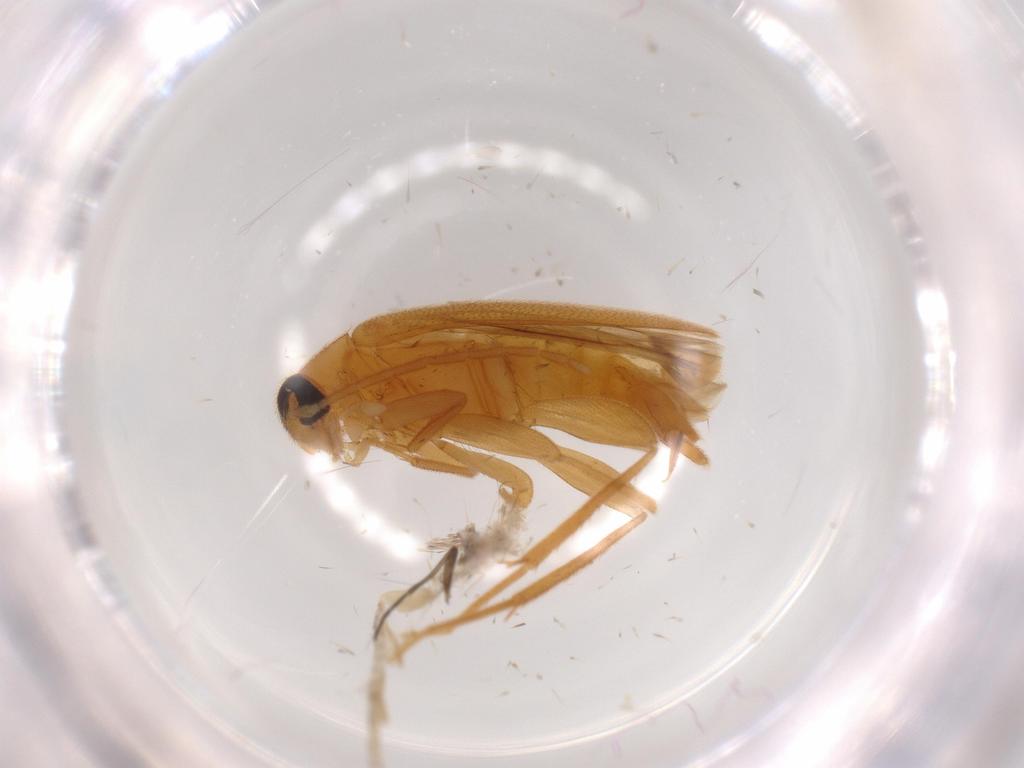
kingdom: Animalia
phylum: Arthropoda
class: Insecta
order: Coleoptera
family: Scraptiidae
